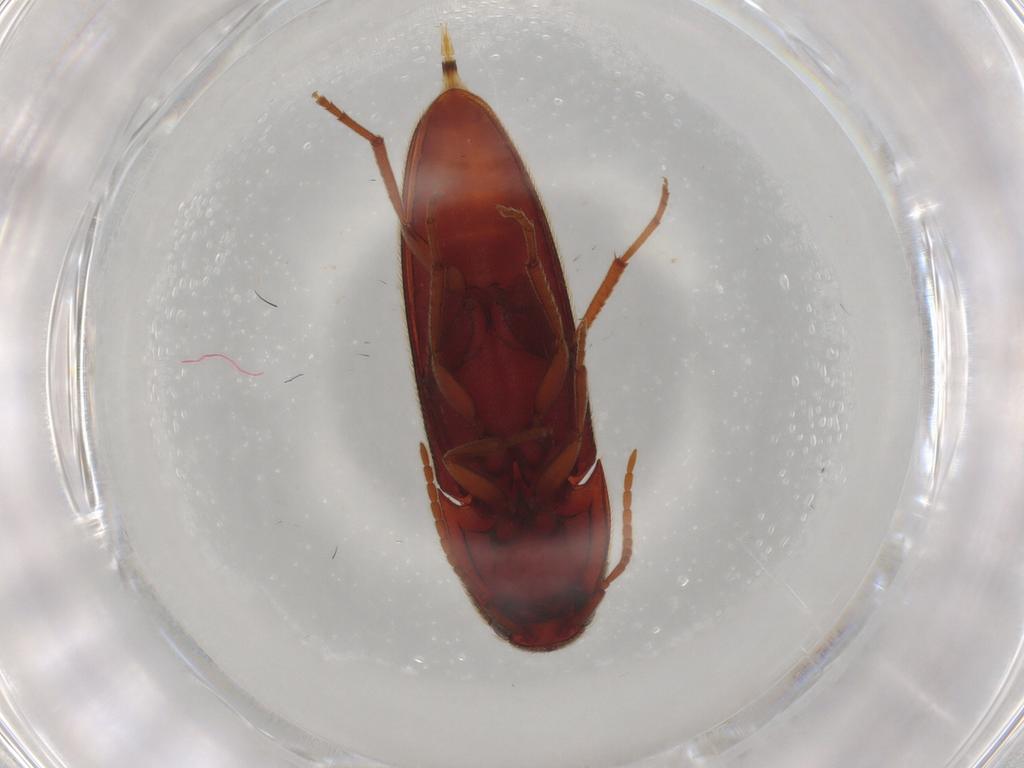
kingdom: Animalia
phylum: Arthropoda
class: Insecta
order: Coleoptera
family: Eucnemidae
